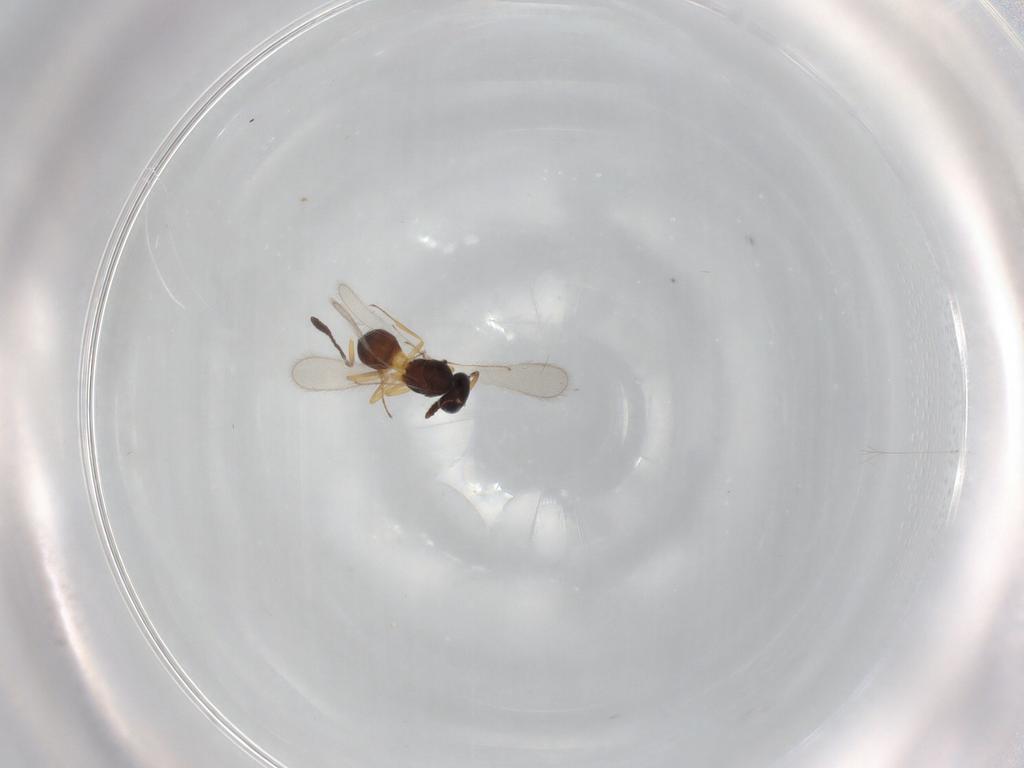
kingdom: Animalia
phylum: Arthropoda
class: Insecta
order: Hymenoptera
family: Scelionidae
